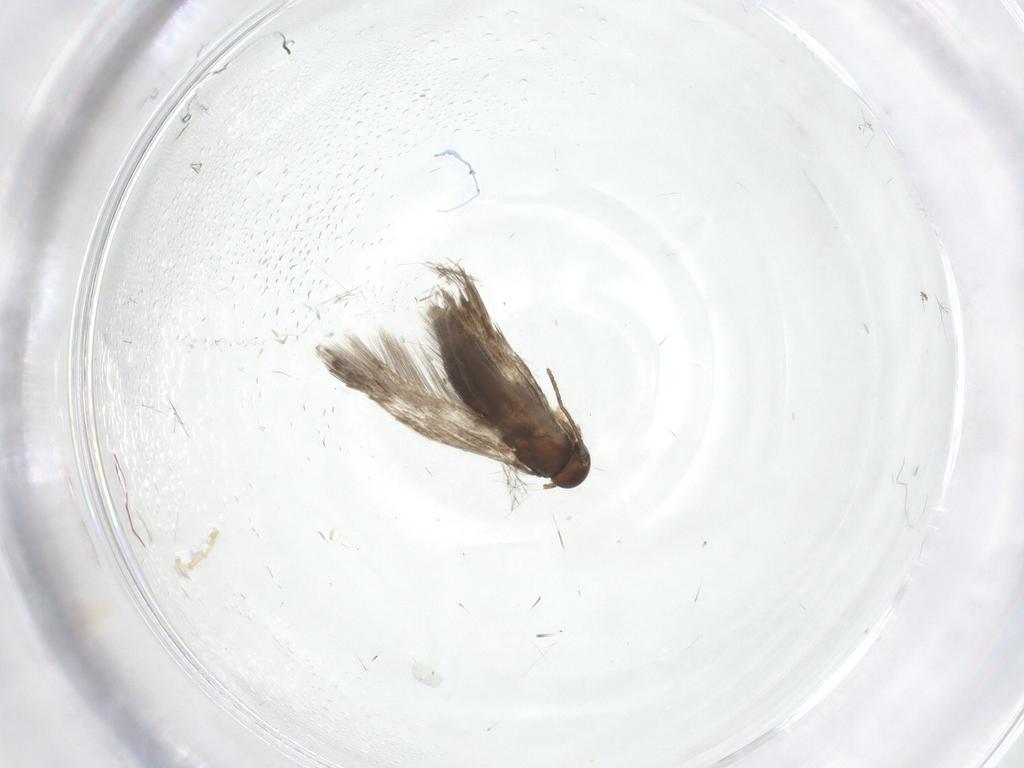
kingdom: Animalia
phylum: Arthropoda
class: Insecta
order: Lepidoptera
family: Heliozelidae
